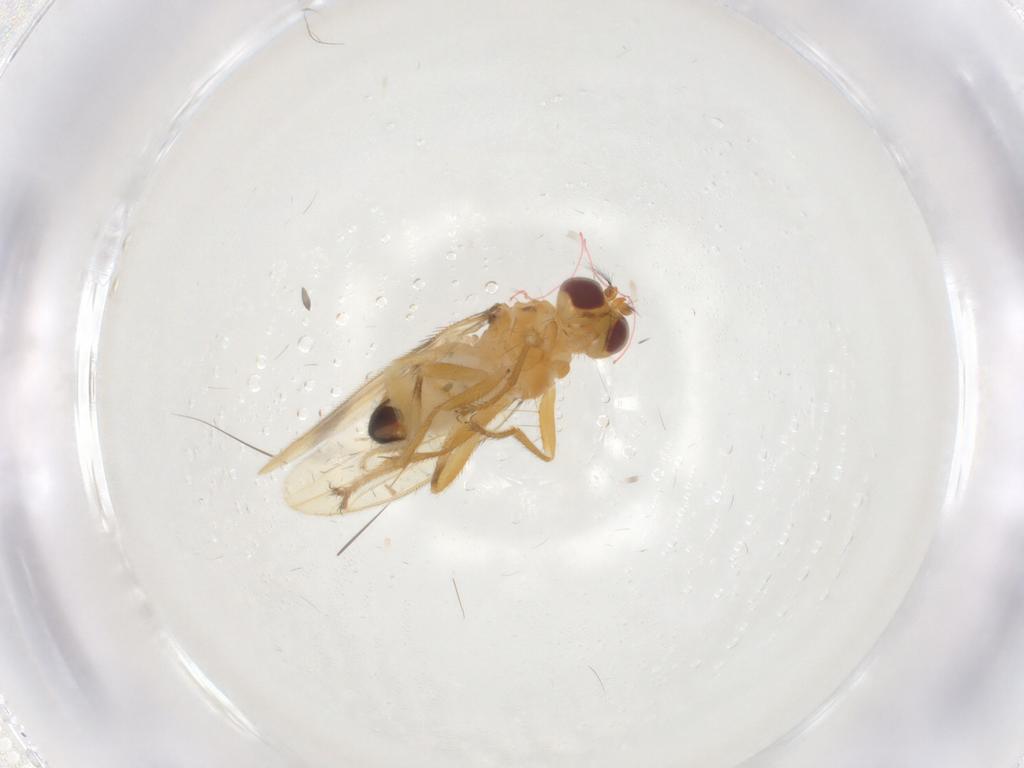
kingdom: Animalia
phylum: Arthropoda
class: Insecta
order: Diptera
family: Periscelididae
